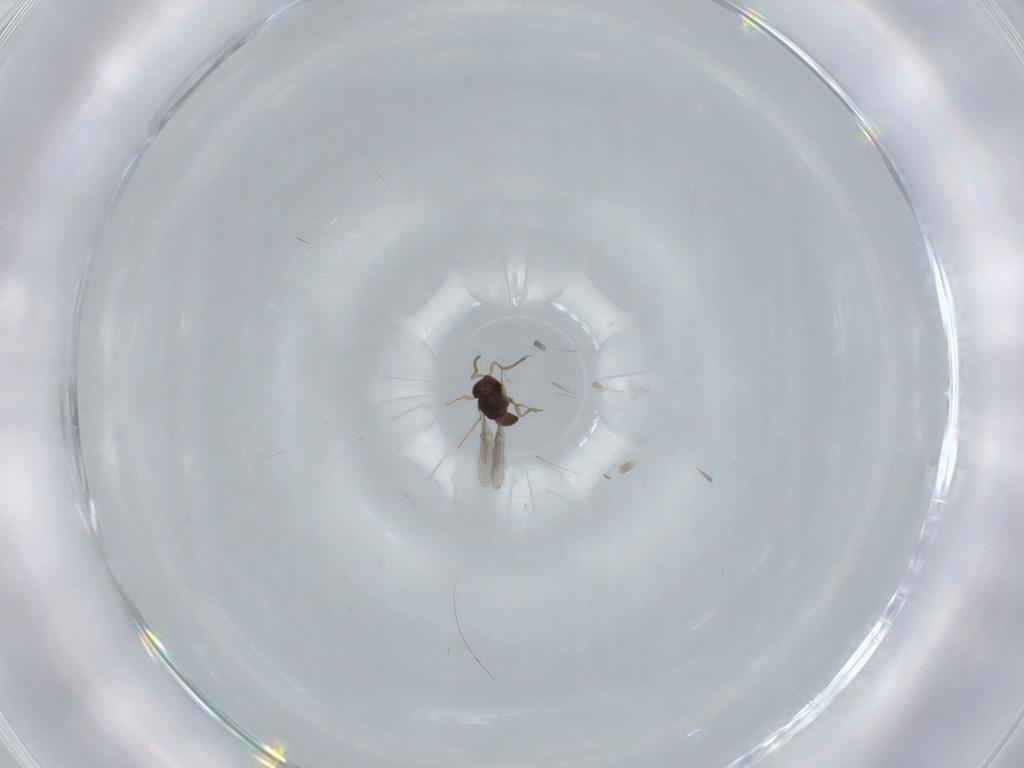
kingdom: Animalia
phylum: Arthropoda
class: Insecta
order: Hymenoptera
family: Scelionidae
